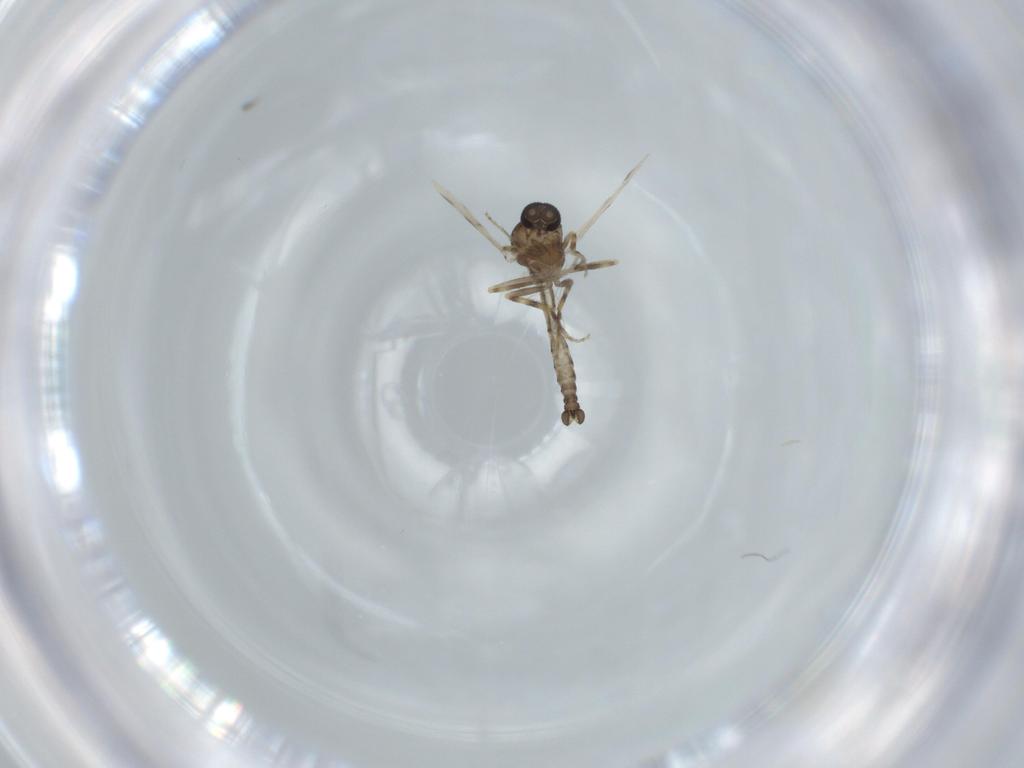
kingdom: Animalia
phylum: Arthropoda
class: Insecta
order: Diptera
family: Ceratopogonidae
